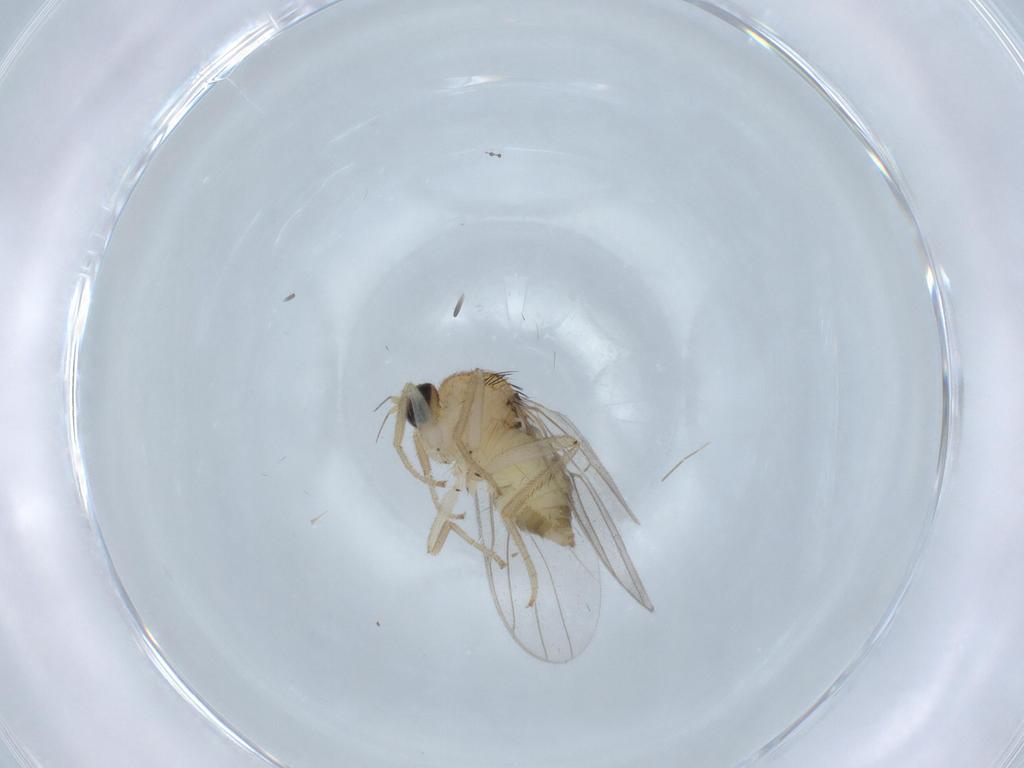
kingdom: Animalia
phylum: Arthropoda
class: Insecta
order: Diptera
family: Hybotidae
